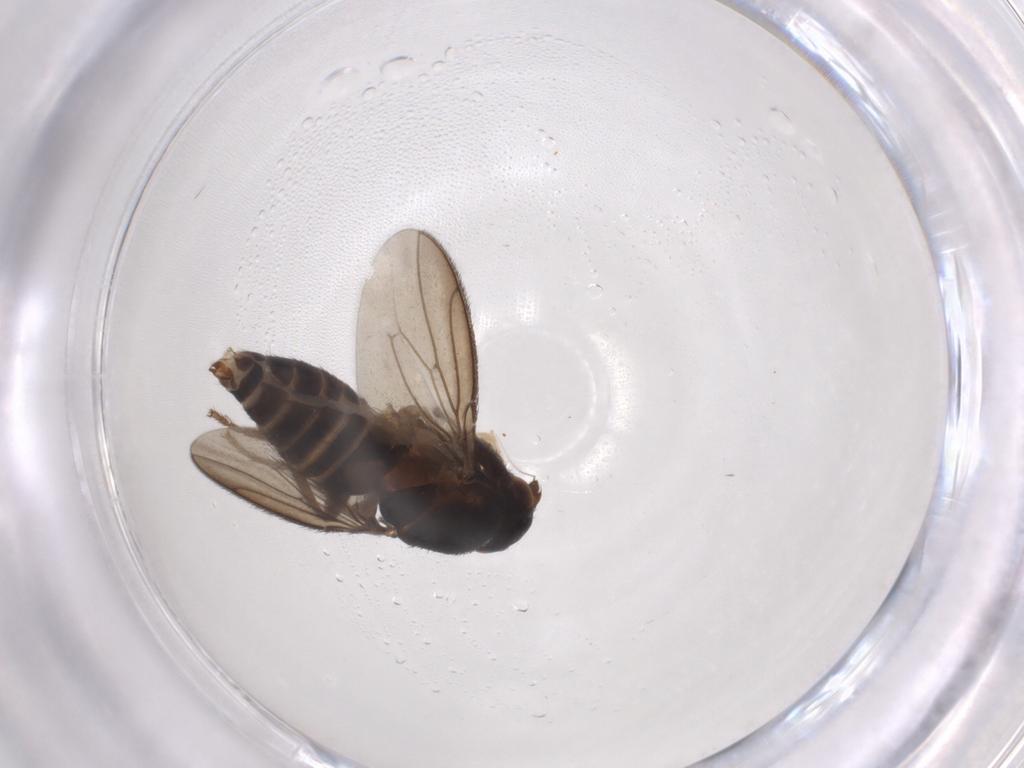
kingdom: Animalia
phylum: Arthropoda
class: Insecta
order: Diptera
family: Sphaeroceridae
